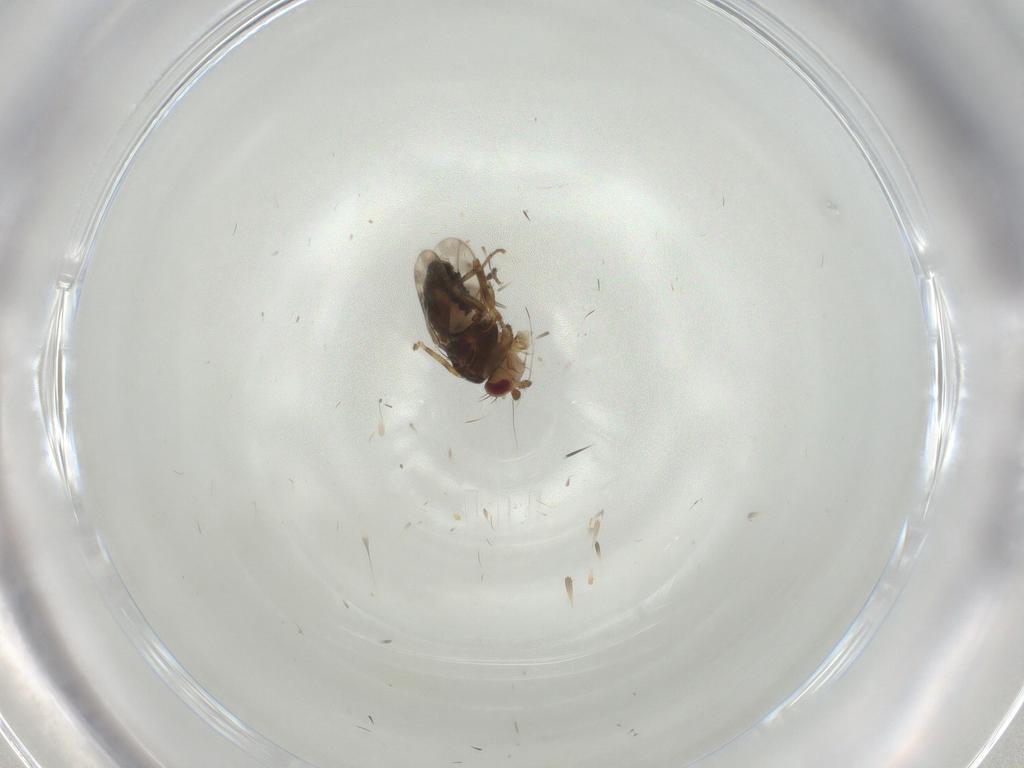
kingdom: Animalia
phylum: Arthropoda
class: Insecta
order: Diptera
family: Sphaeroceridae
